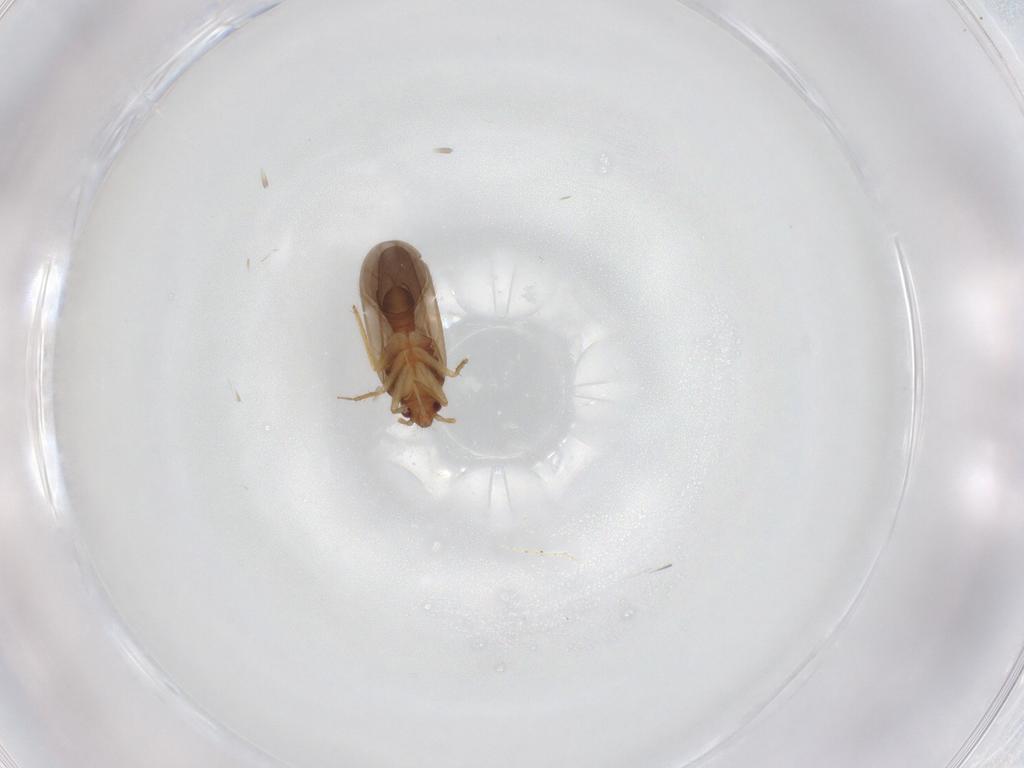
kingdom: Animalia
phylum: Arthropoda
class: Insecta
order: Hemiptera
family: Ceratocombidae
